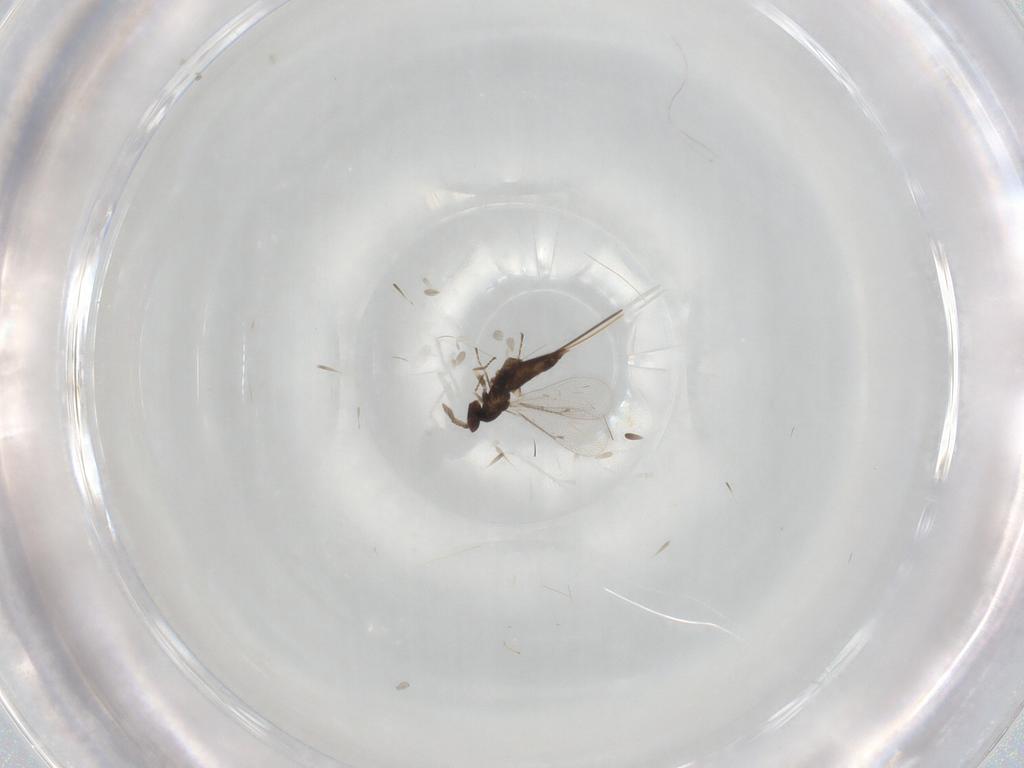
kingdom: Animalia
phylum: Arthropoda
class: Insecta
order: Hymenoptera
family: Eulophidae
